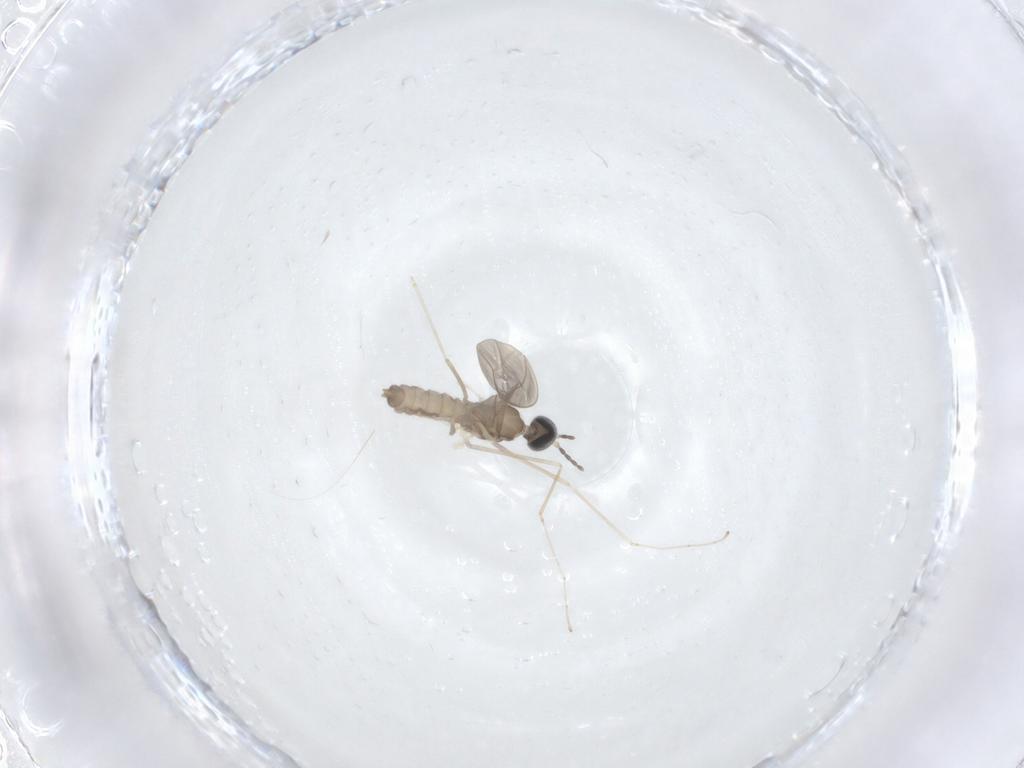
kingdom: Animalia
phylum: Arthropoda
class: Insecta
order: Diptera
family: Cecidomyiidae
